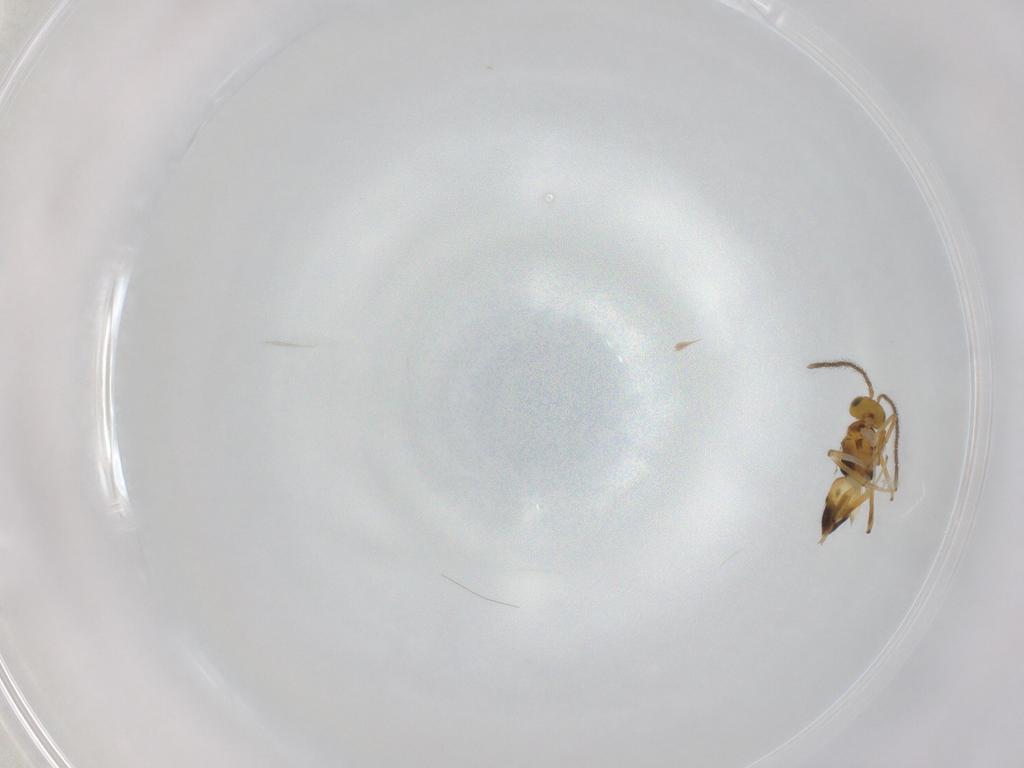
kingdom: Animalia
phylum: Arthropoda
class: Insecta
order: Hymenoptera
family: Encyrtidae
